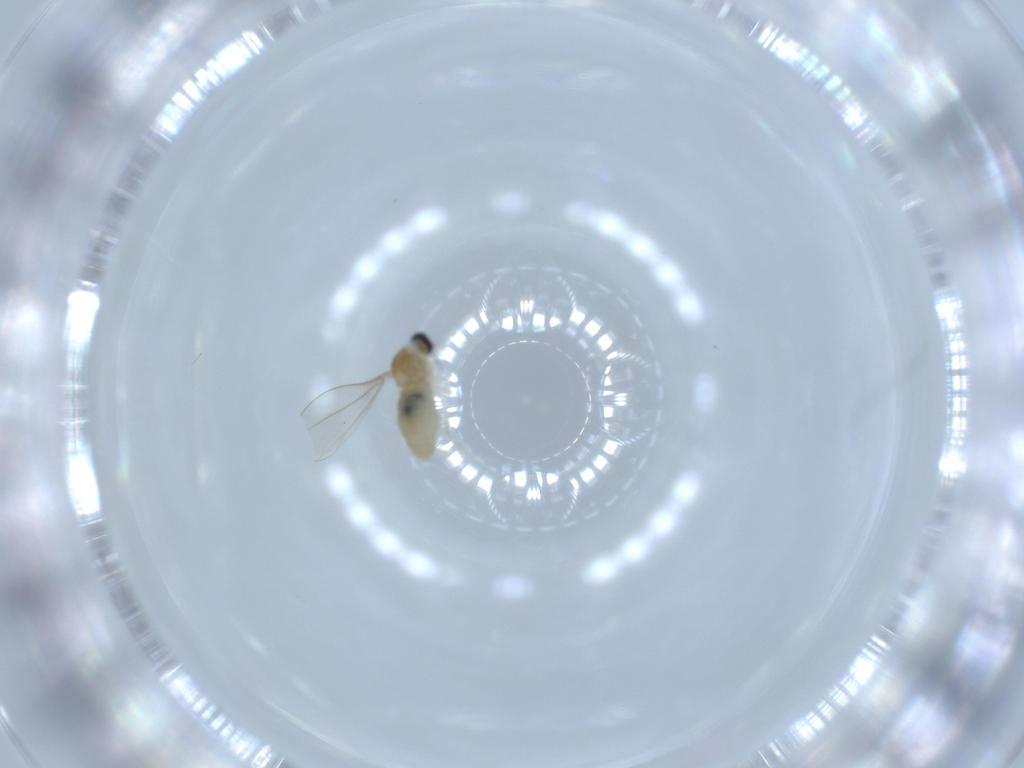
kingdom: Animalia
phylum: Arthropoda
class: Insecta
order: Diptera
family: Cecidomyiidae
